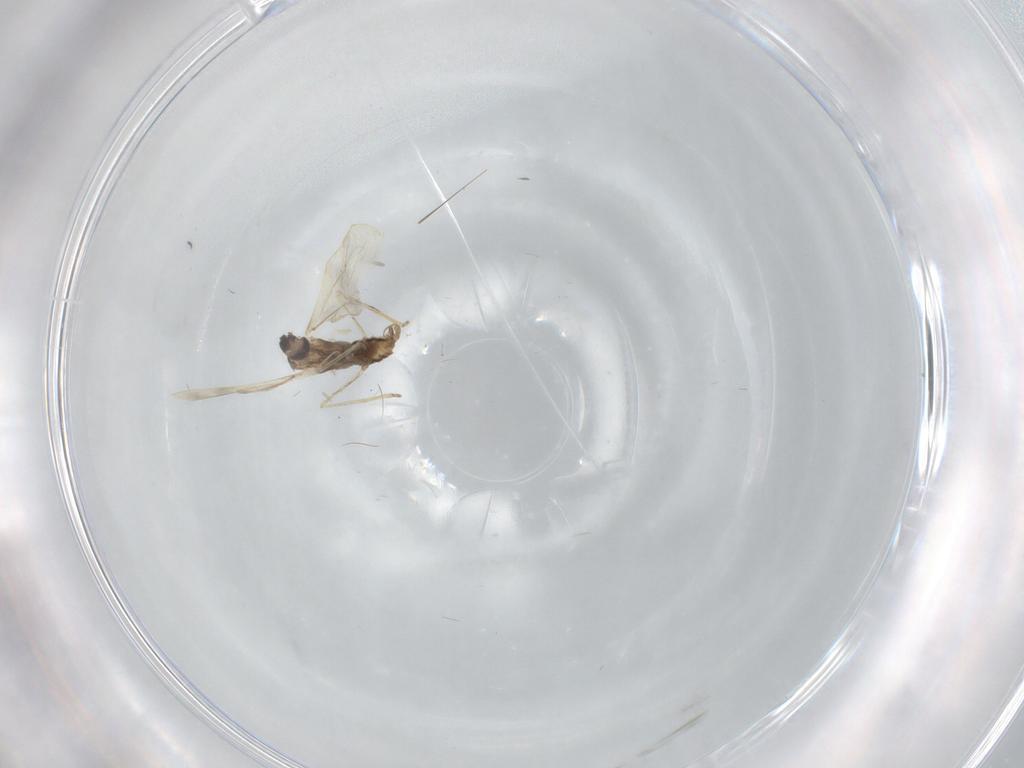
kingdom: Animalia
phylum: Arthropoda
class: Insecta
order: Diptera
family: Cecidomyiidae
